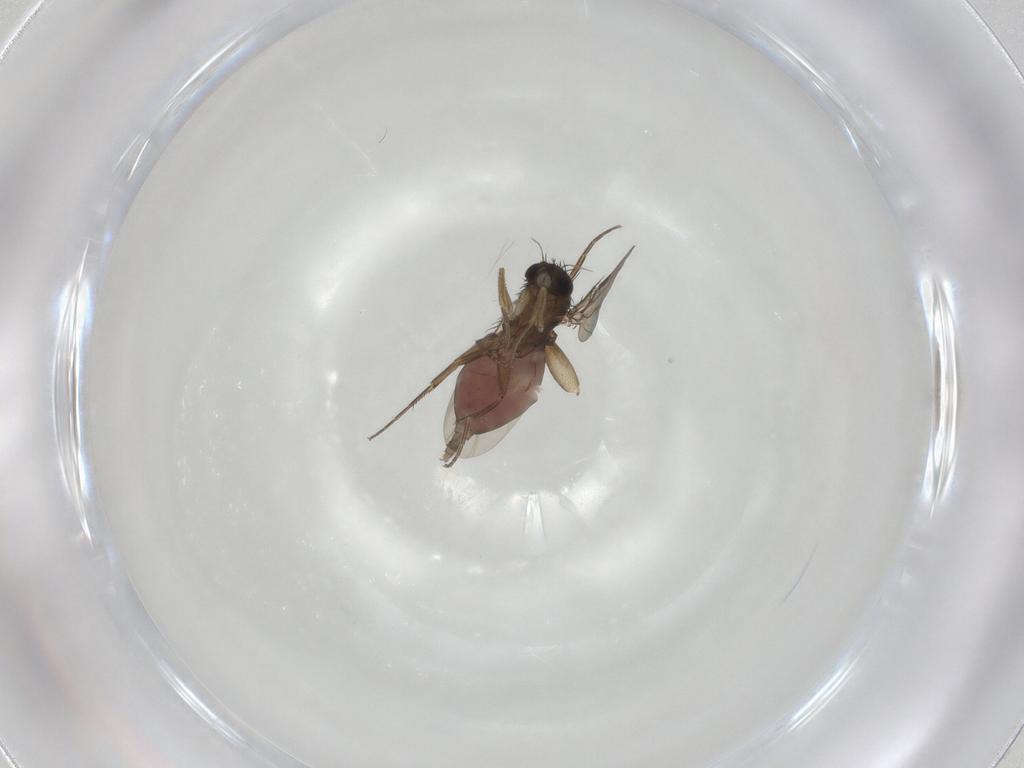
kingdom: Animalia
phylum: Arthropoda
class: Insecta
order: Diptera
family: Phoridae
